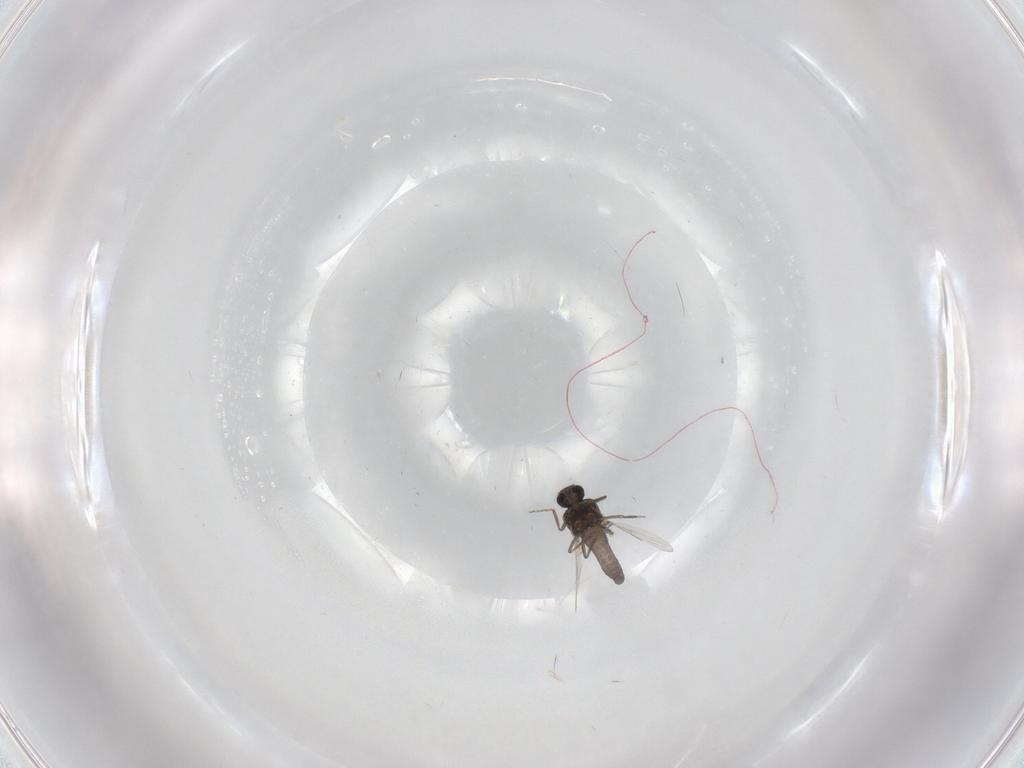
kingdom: Animalia
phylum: Arthropoda
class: Insecta
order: Diptera
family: Ceratopogonidae
